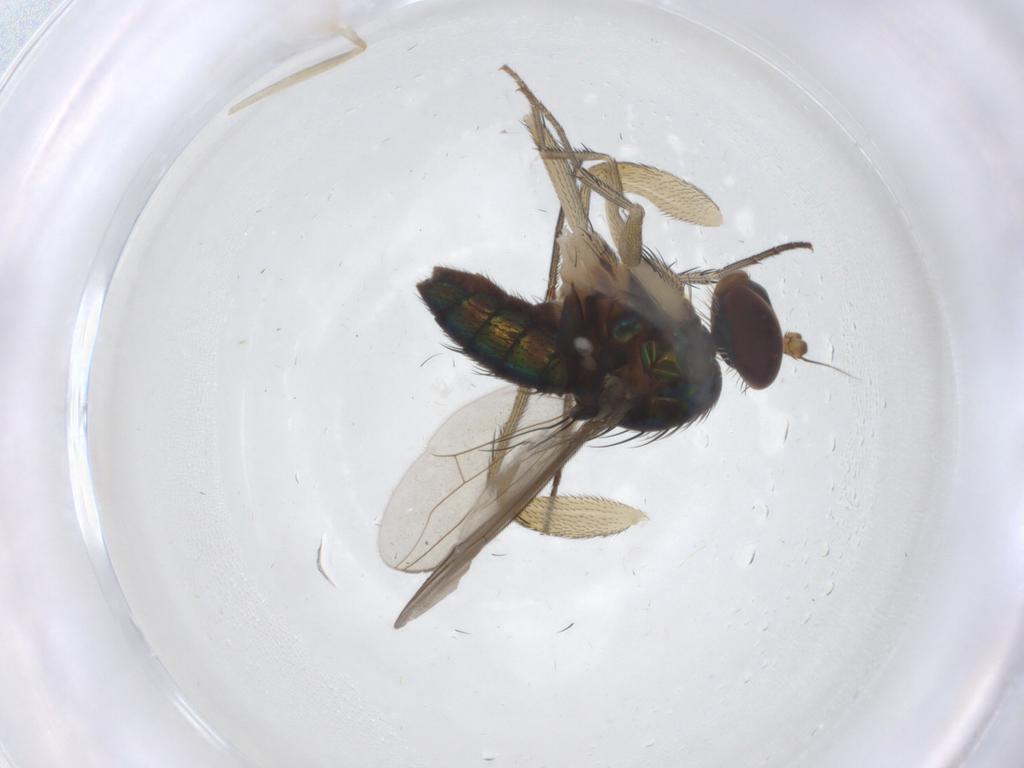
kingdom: Animalia
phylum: Arthropoda
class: Insecta
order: Diptera
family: Dolichopodidae
